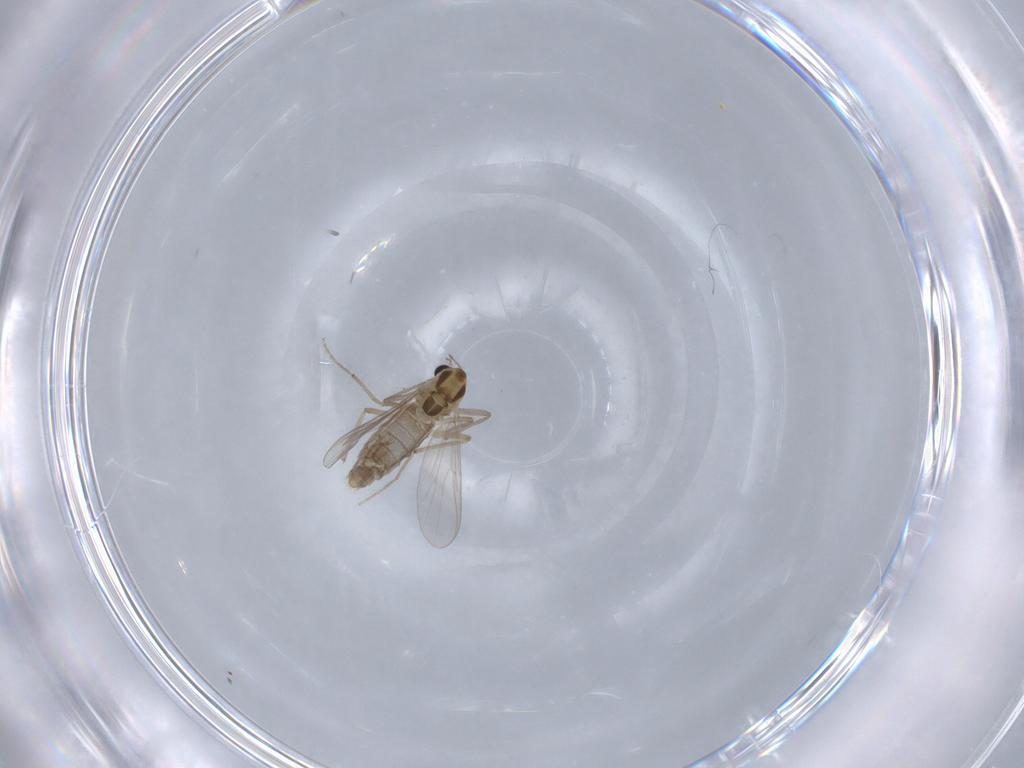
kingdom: Animalia
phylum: Arthropoda
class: Insecta
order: Diptera
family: Chironomidae
